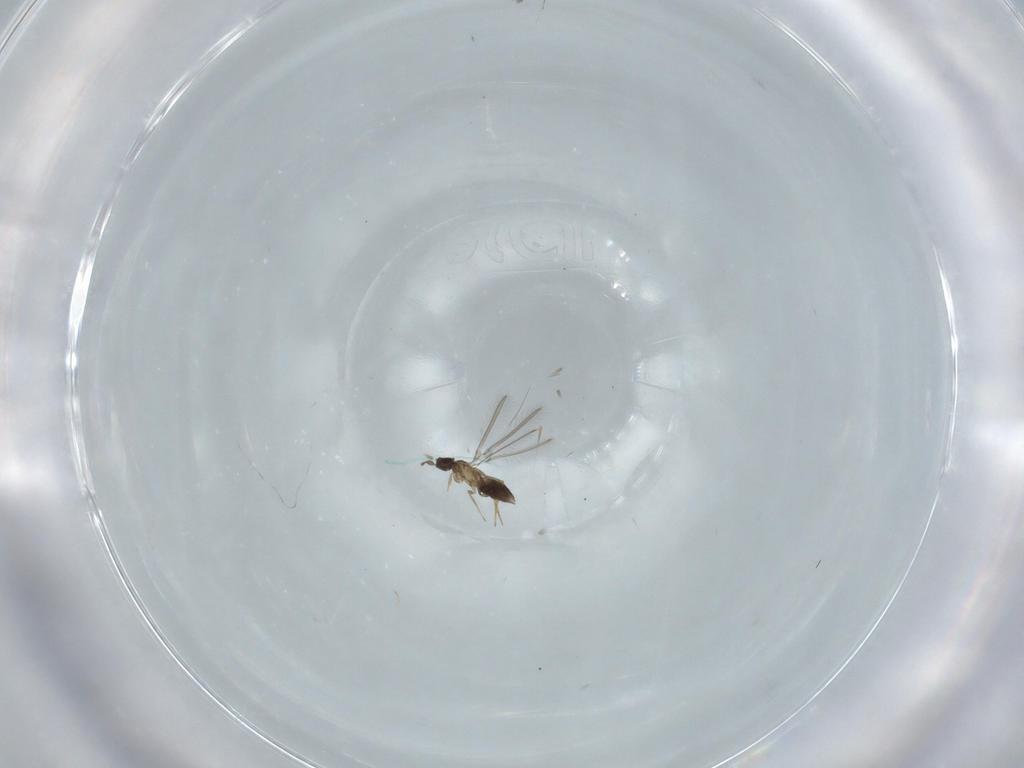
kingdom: Animalia
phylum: Arthropoda
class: Insecta
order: Hymenoptera
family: Mymaridae
